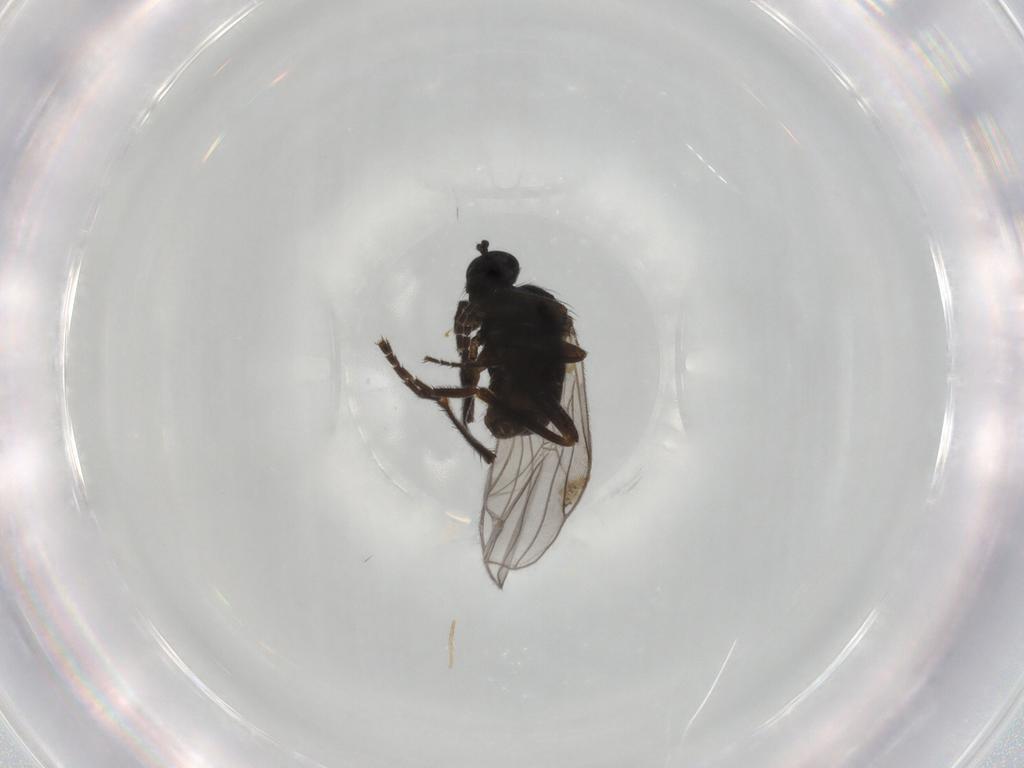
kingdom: Animalia
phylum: Arthropoda
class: Insecta
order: Diptera
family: Hybotidae
